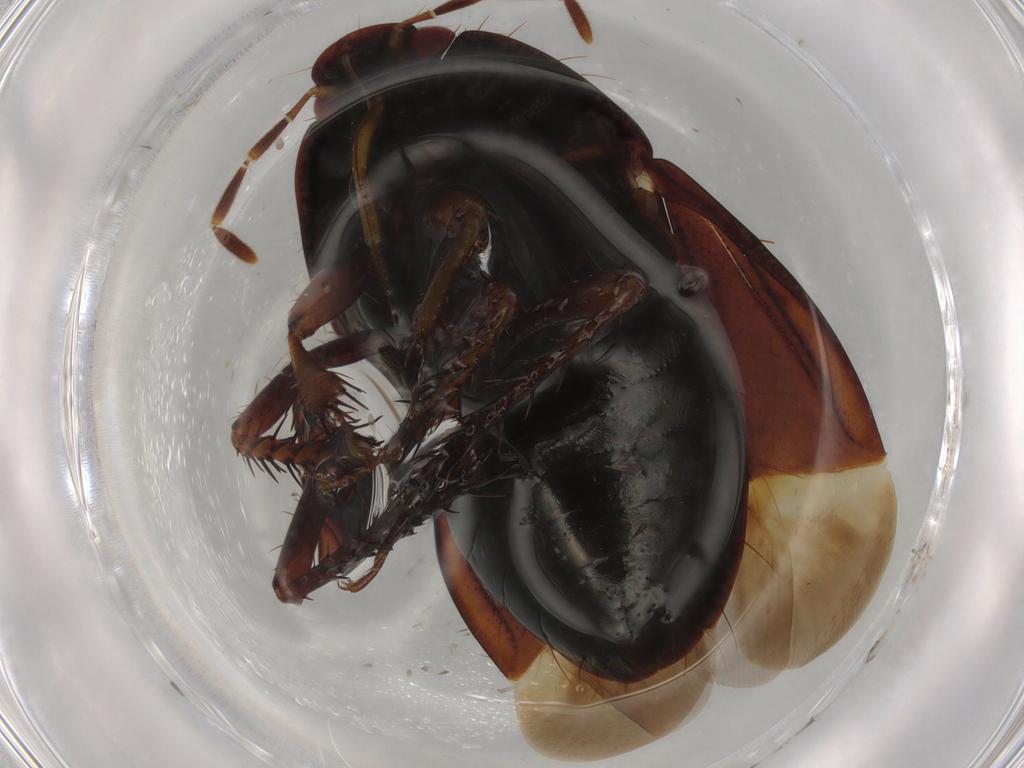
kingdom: Animalia
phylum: Arthropoda
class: Insecta
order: Hemiptera
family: Cydnidae
